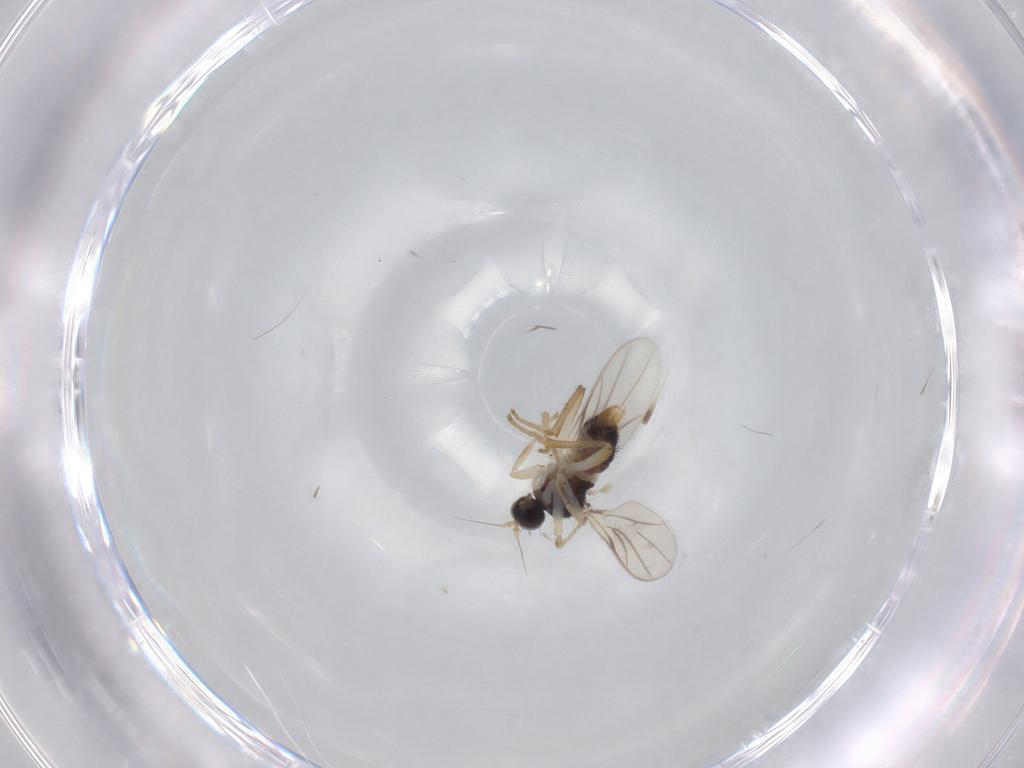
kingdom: Animalia
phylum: Arthropoda
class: Insecta
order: Diptera
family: Hybotidae
